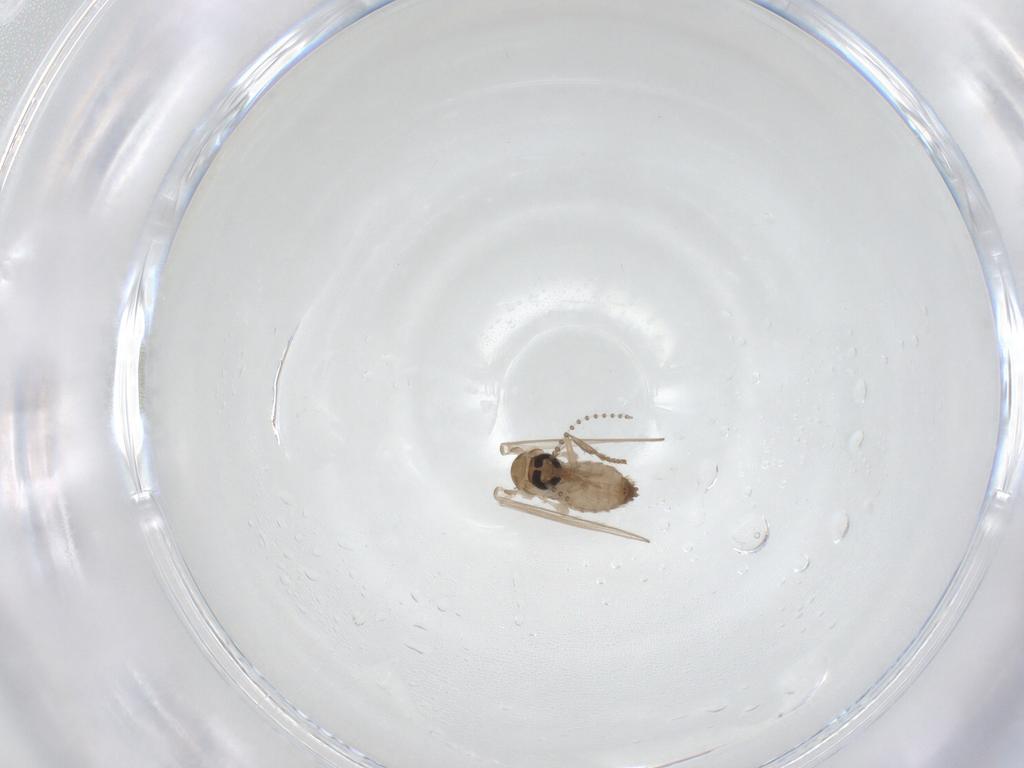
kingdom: Animalia
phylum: Arthropoda
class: Insecta
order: Diptera
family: Psychodidae
